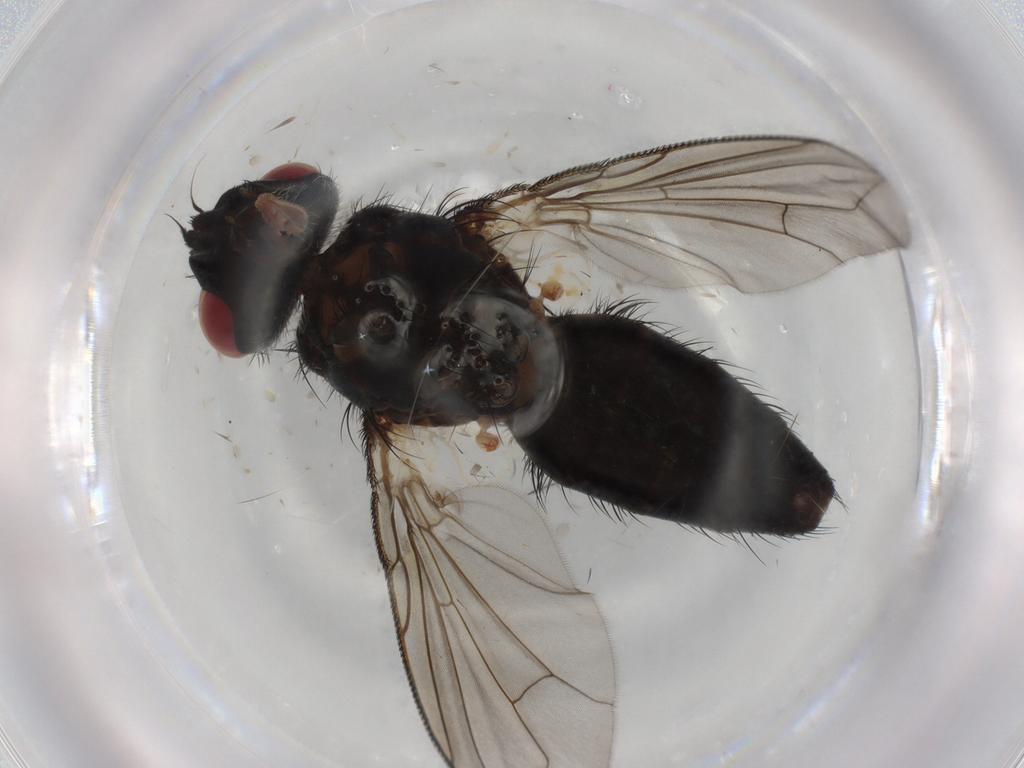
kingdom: Animalia
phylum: Arthropoda
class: Insecta
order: Diptera
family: Tachinidae
